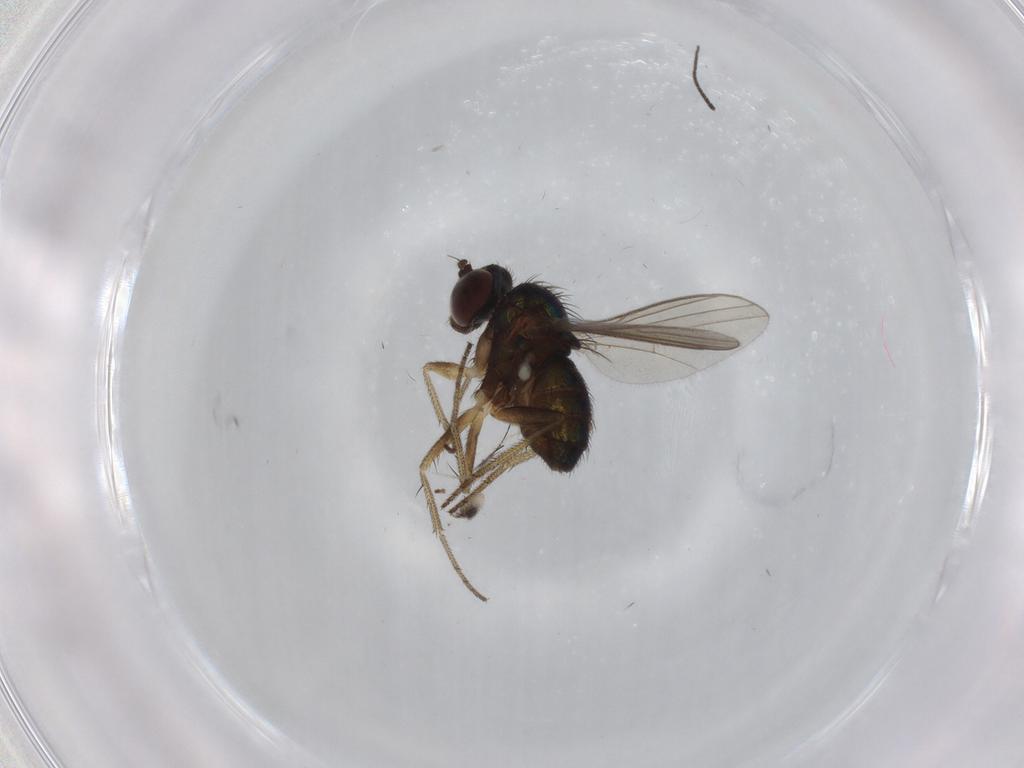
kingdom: Animalia
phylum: Arthropoda
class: Insecta
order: Diptera
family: Sciaridae
